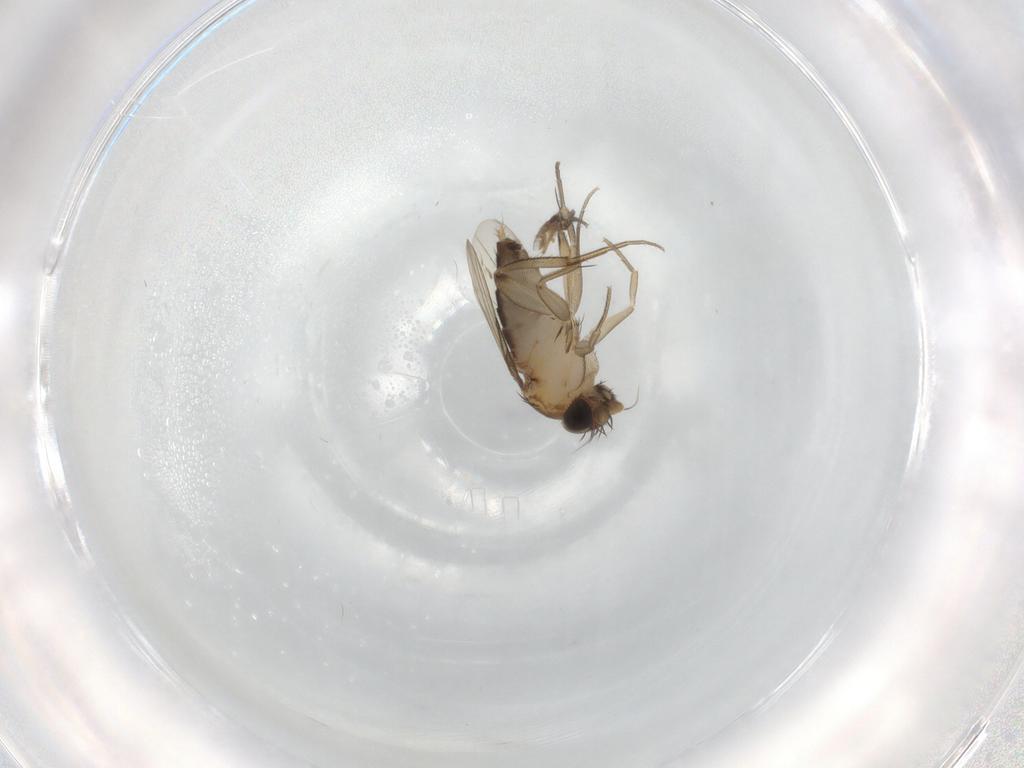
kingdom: Animalia
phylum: Arthropoda
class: Insecta
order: Diptera
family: Phoridae
